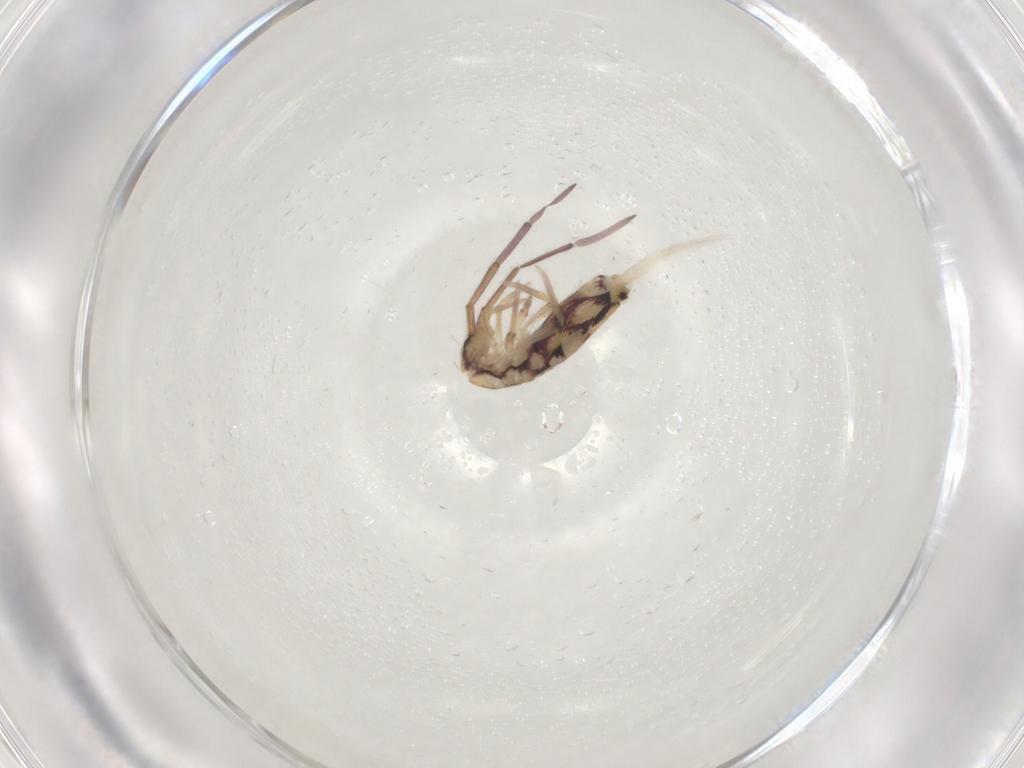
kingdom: Animalia
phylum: Arthropoda
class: Collembola
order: Entomobryomorpha
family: Entomobryidae
